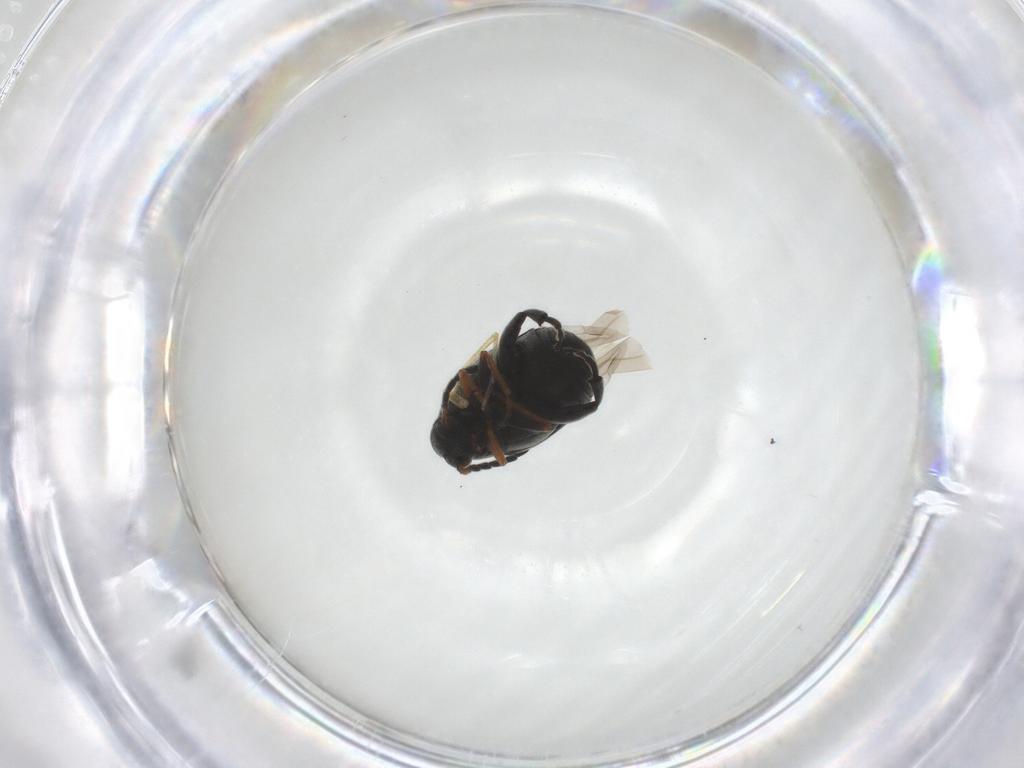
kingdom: Animalia
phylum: Arthropoda
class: Insecta
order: Coleoptera
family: Chrysomelidae
